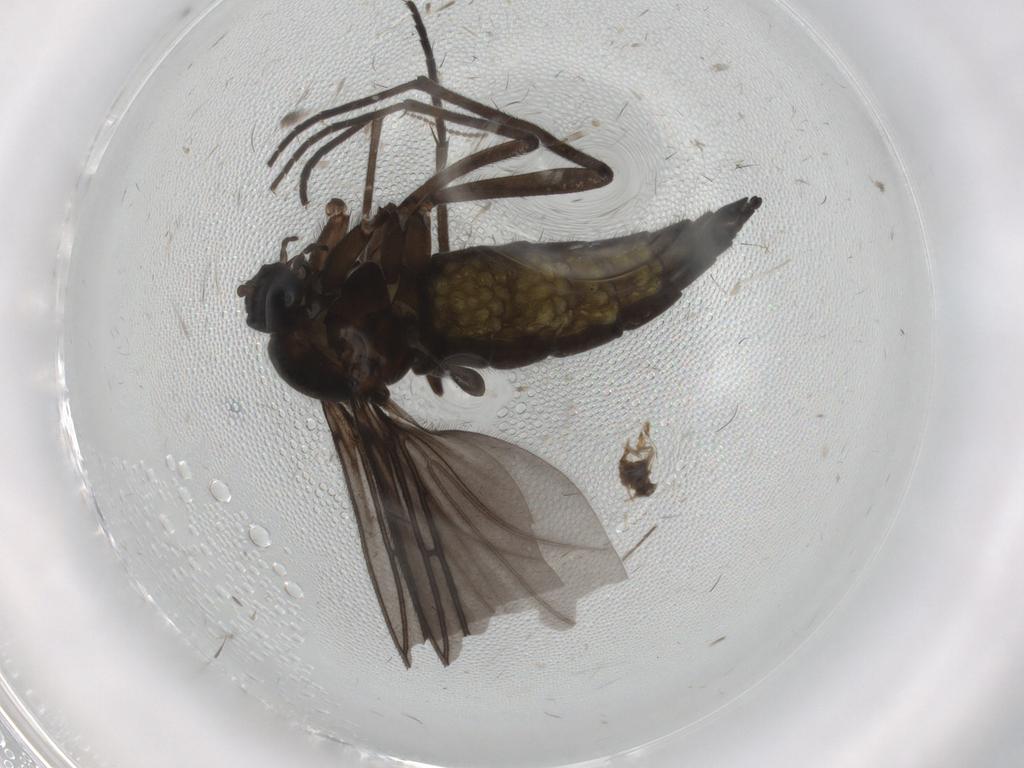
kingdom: Animalia
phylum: Arthropoda
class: Insecta
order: Diptera
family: Sciaridae
